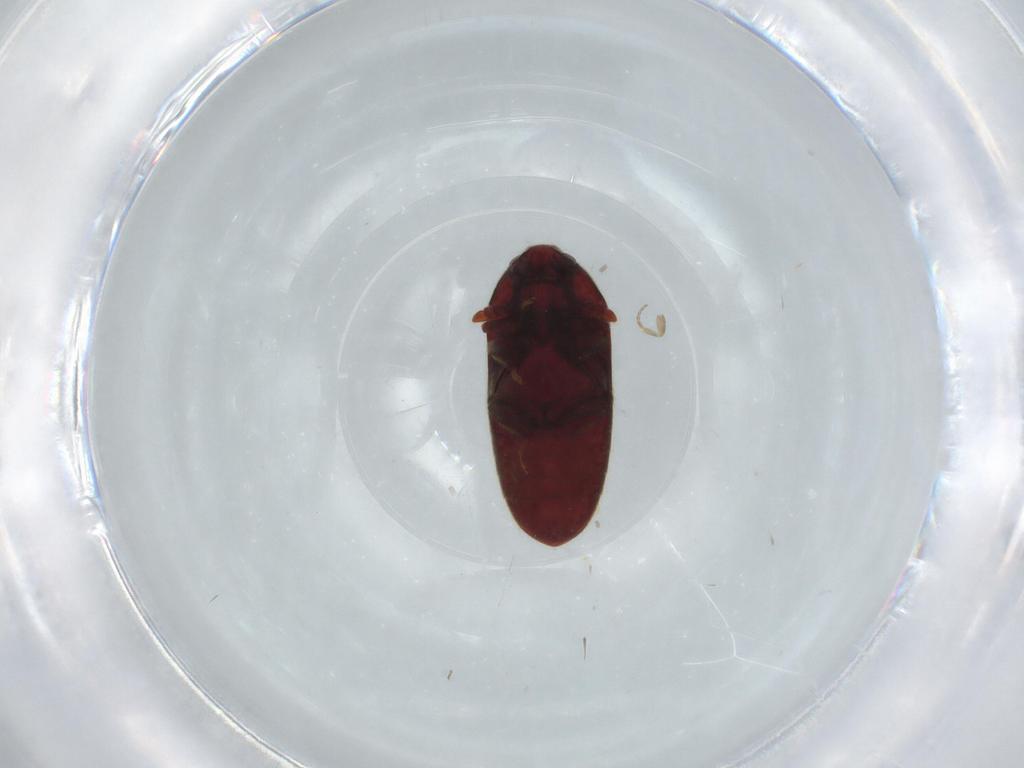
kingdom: Animalia
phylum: Arthropoda
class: Insecta
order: Coleoptera
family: Throscidae
